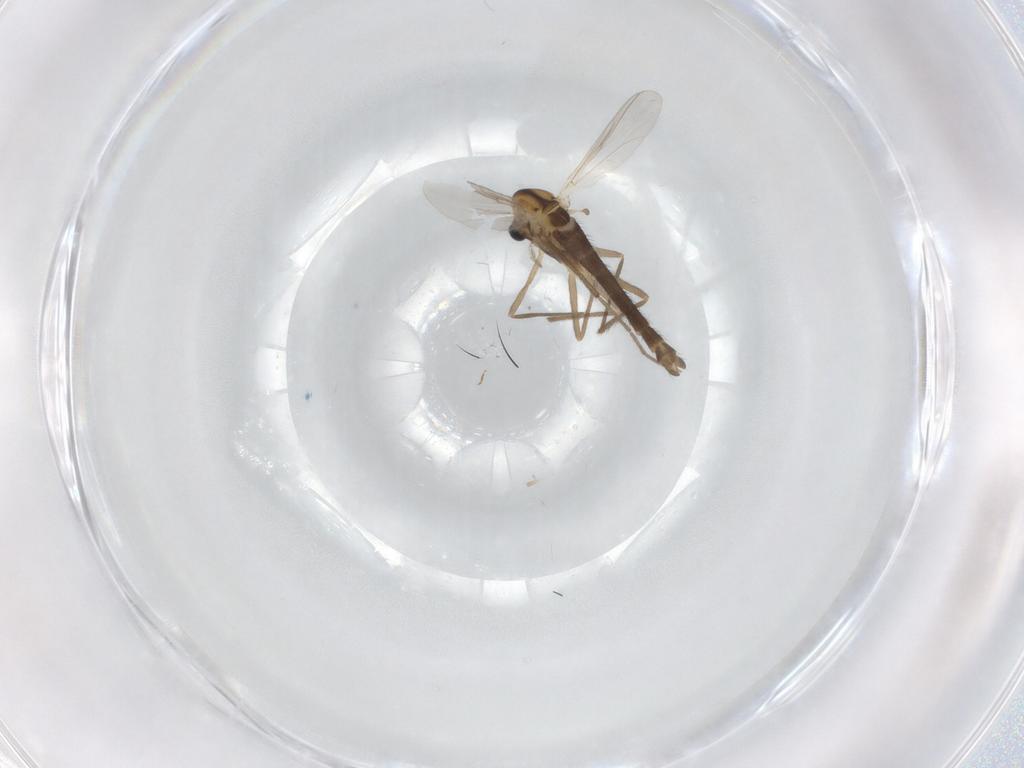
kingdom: Animalia
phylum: Arthropoda
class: Insecta
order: Diptera
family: Chironomidae
